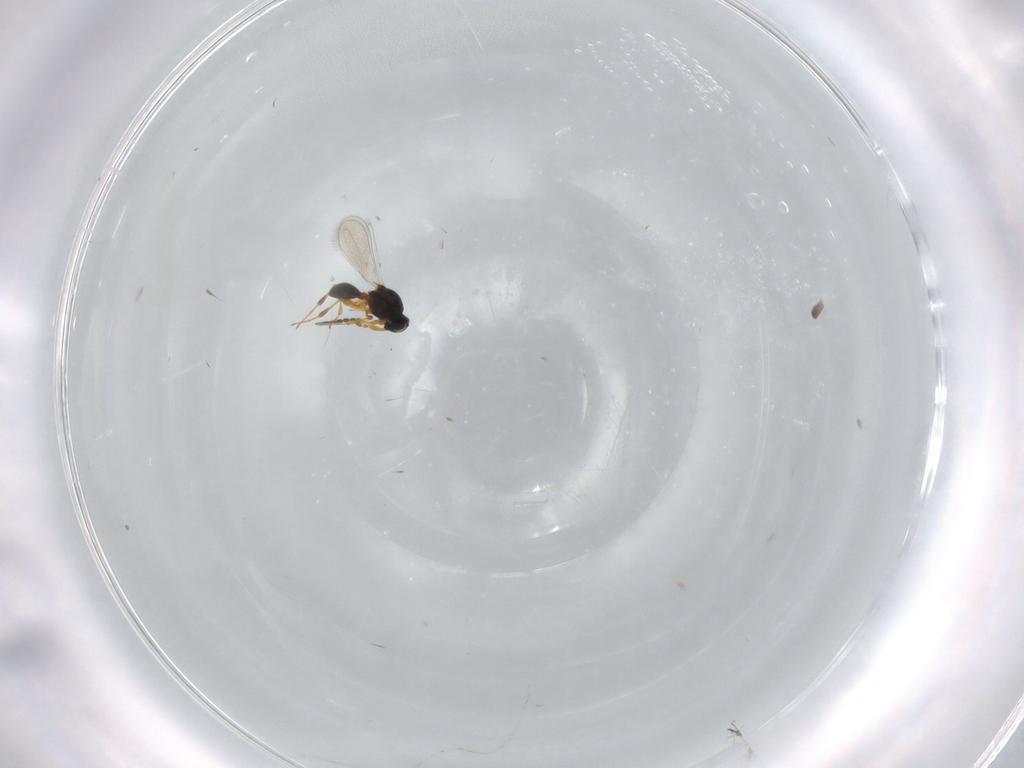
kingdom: Animalia
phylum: Arthropoda
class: Insecta
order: Hymenoptera
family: Platygastridae
